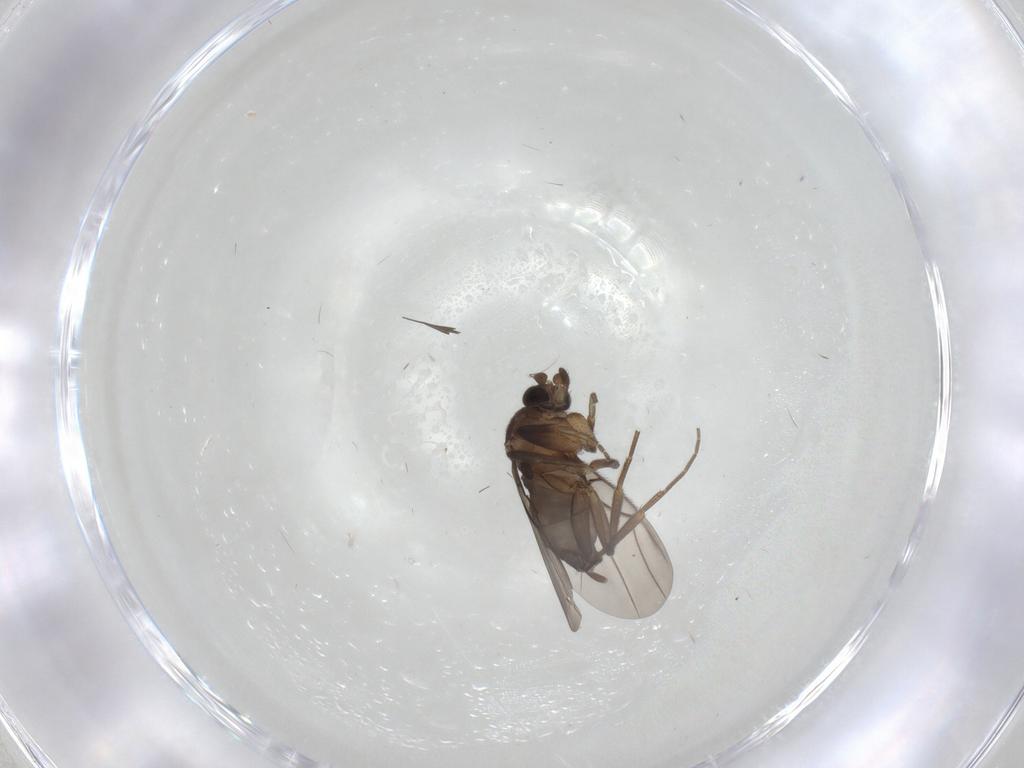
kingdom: Animalia
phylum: Arthropoda
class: Insecta
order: Diptera
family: Phoridae
